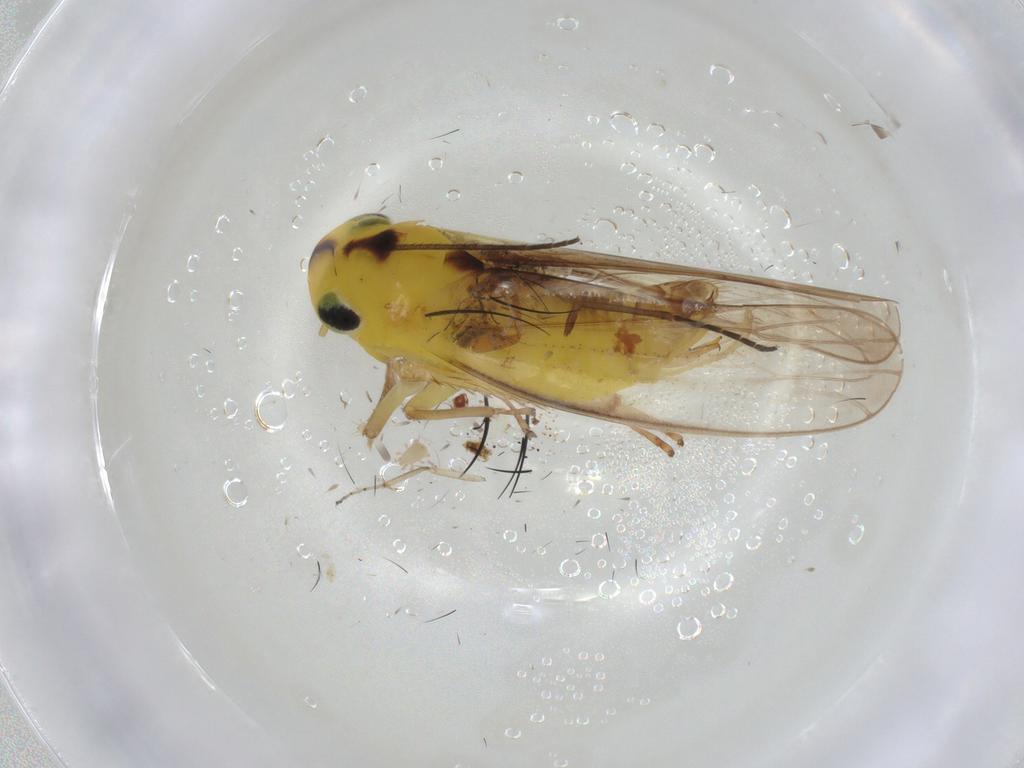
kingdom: Animalia
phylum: Arthropoda
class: Insecta
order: Hemiptera
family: Cicadellidae
